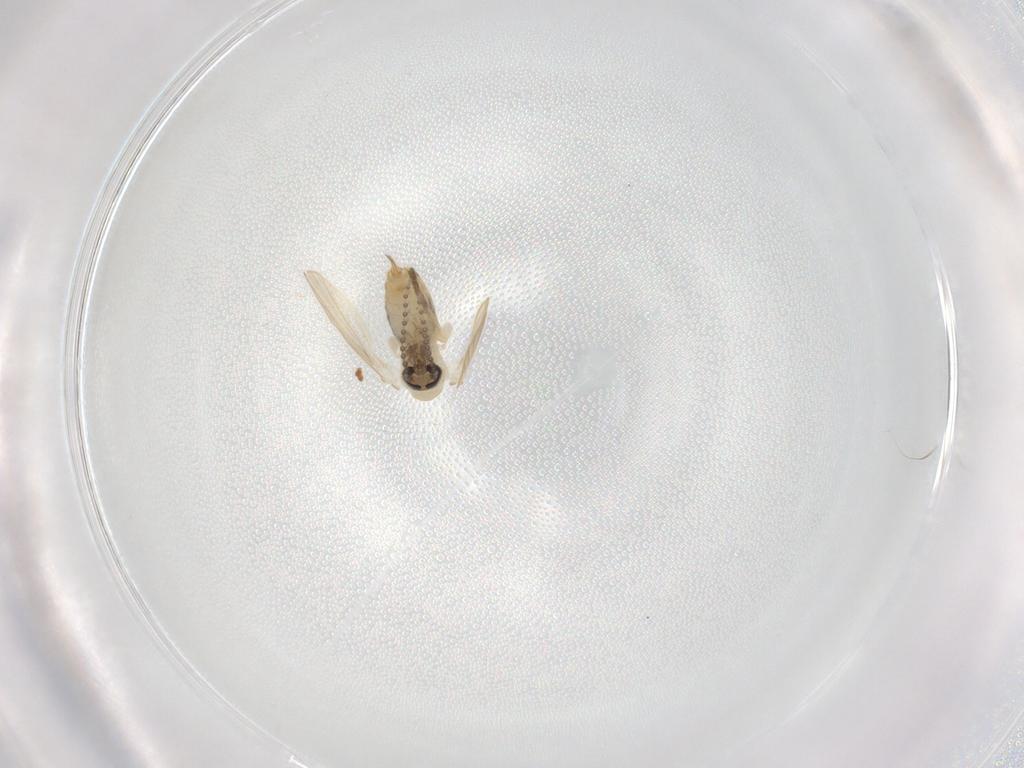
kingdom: Animalia
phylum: Arthropoda
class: Insecta
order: Diptera
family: Psychodidae
